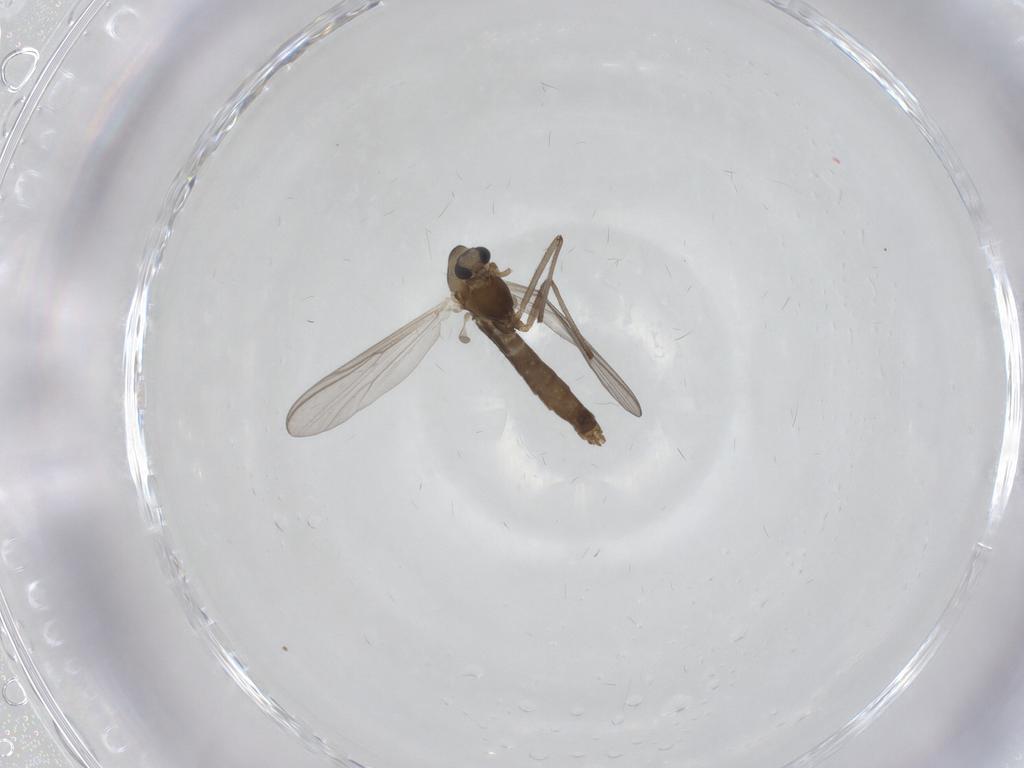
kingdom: Animalia
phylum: Arthropoda
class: Insecta
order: Diptera
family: Chironomidae
